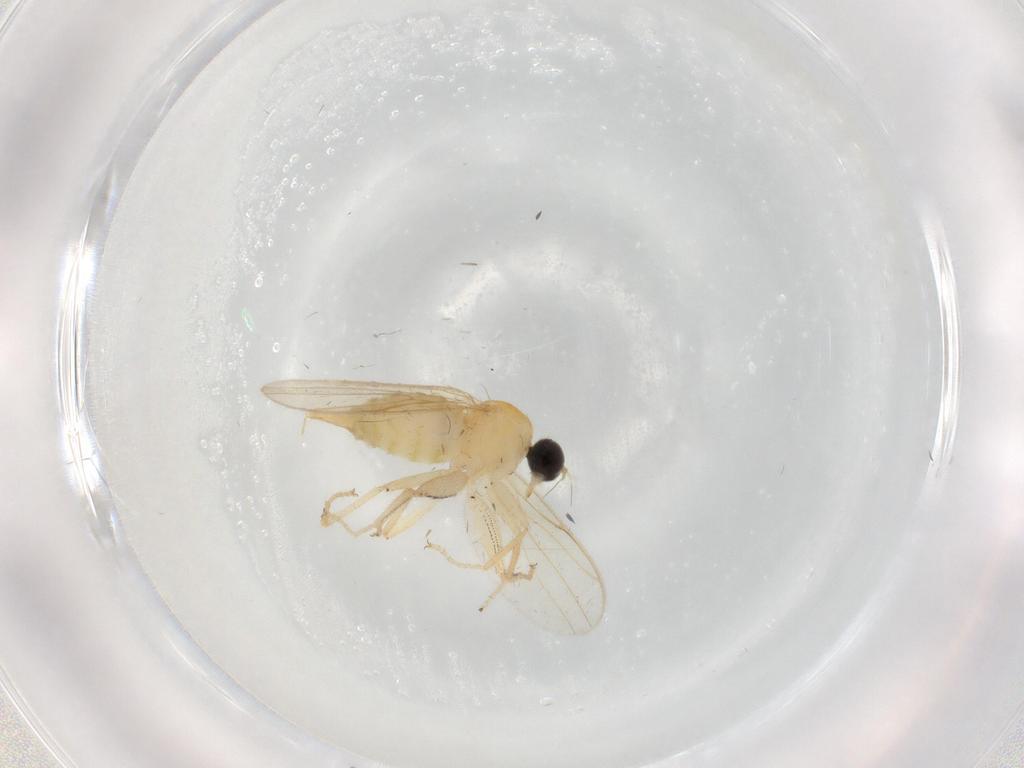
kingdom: Animalia
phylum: Arthropoda
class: Insecta
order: Diptera
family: Phoridae
